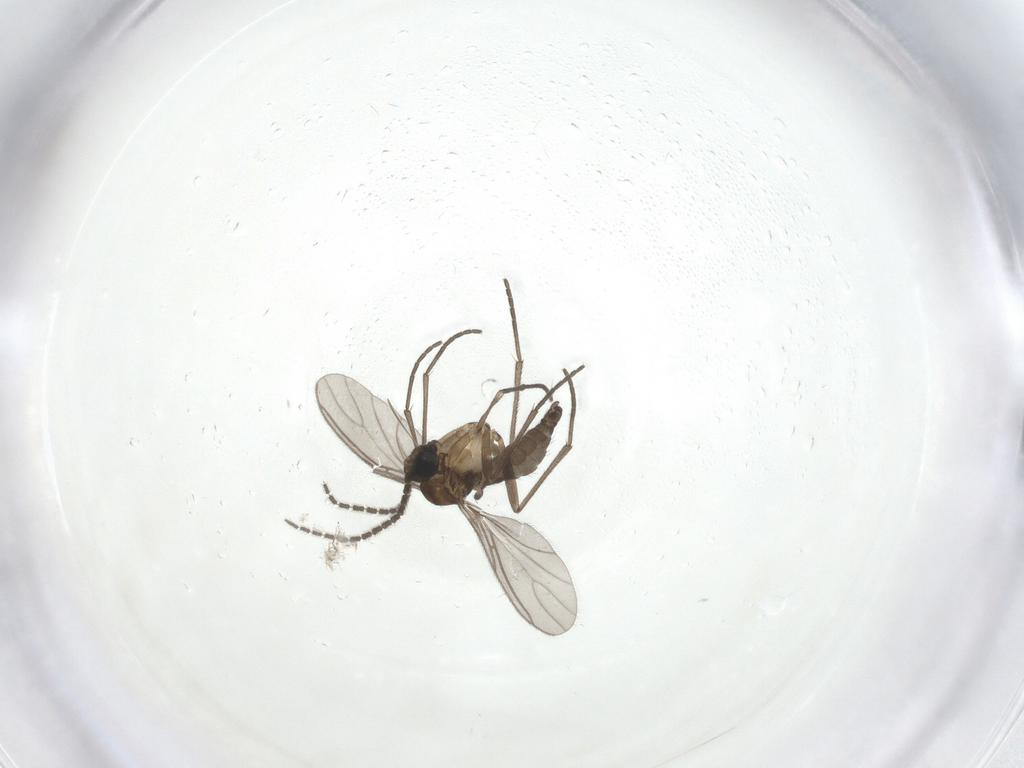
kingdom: Animalia
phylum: Arthropoda
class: Insecta
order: Diptera
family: Sciaridae
